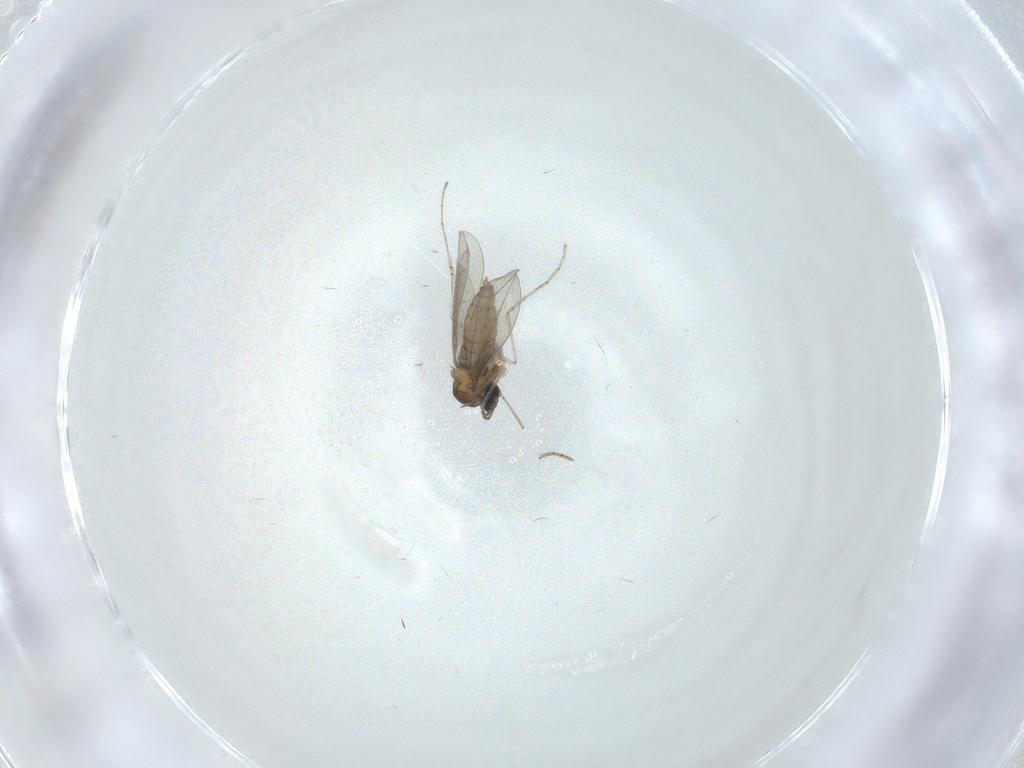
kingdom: Animalia
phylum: Arthropoda
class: Insecta
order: Diptera
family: Cecidomyiidae
